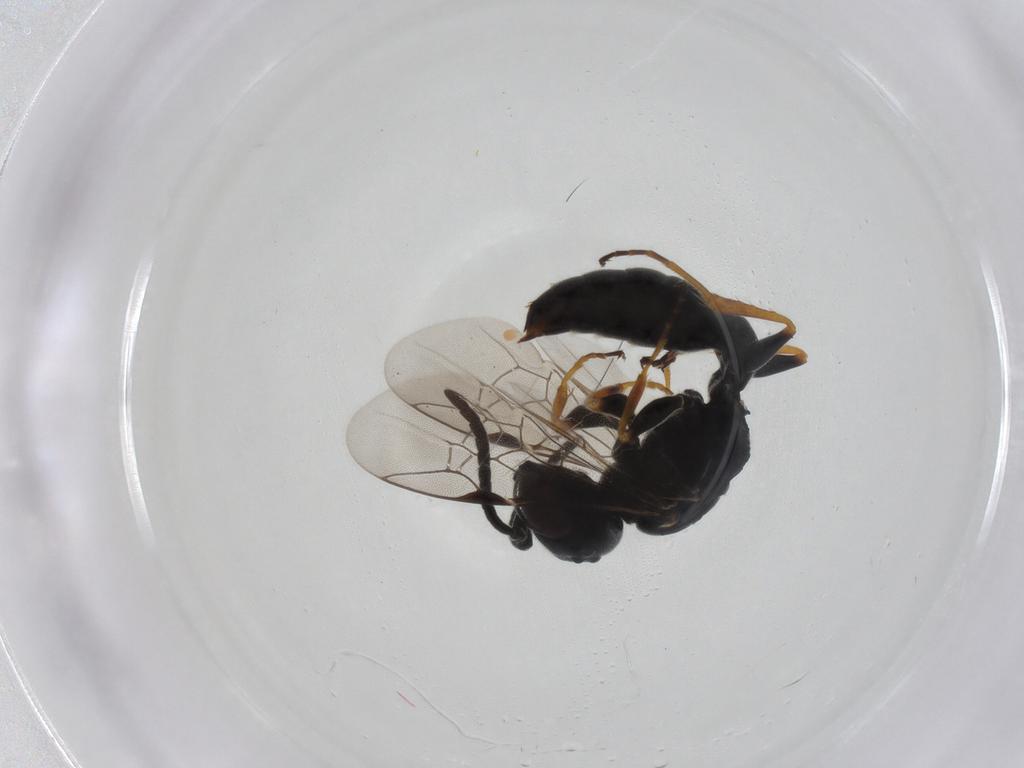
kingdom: Animalia
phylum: Arthropoda
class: Insecta
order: Hymenoptera
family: Pemphredonidae
